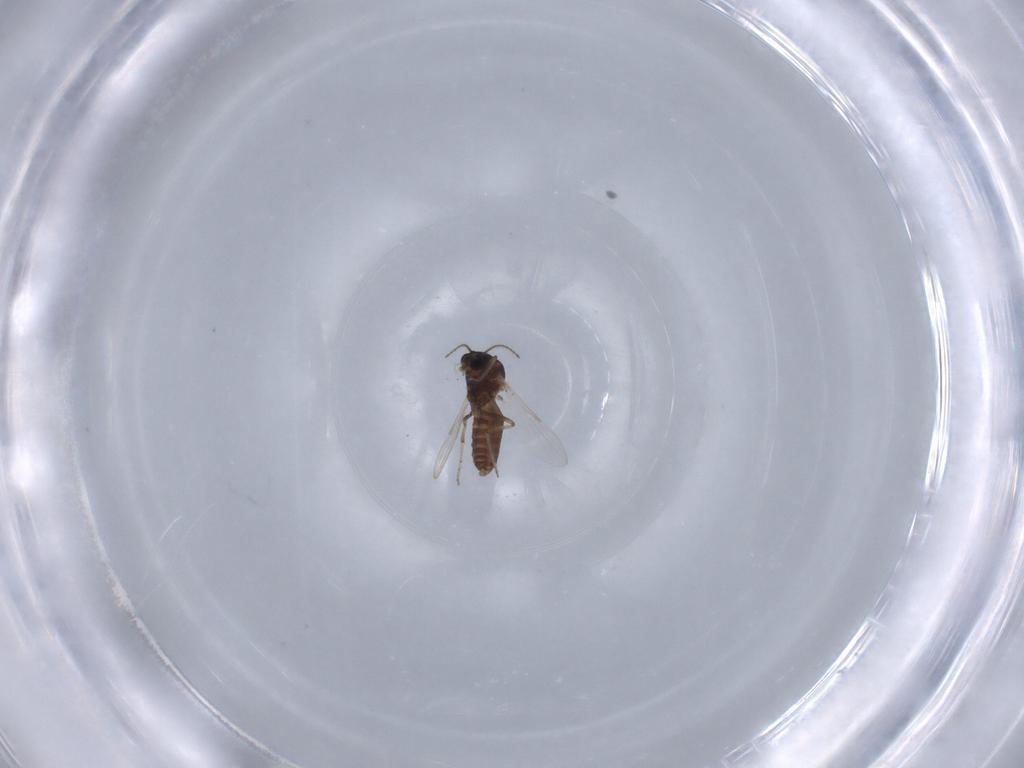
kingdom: Animalia
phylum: Arthropoda
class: Insecta
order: Diptera
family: Ceratopogonidae
